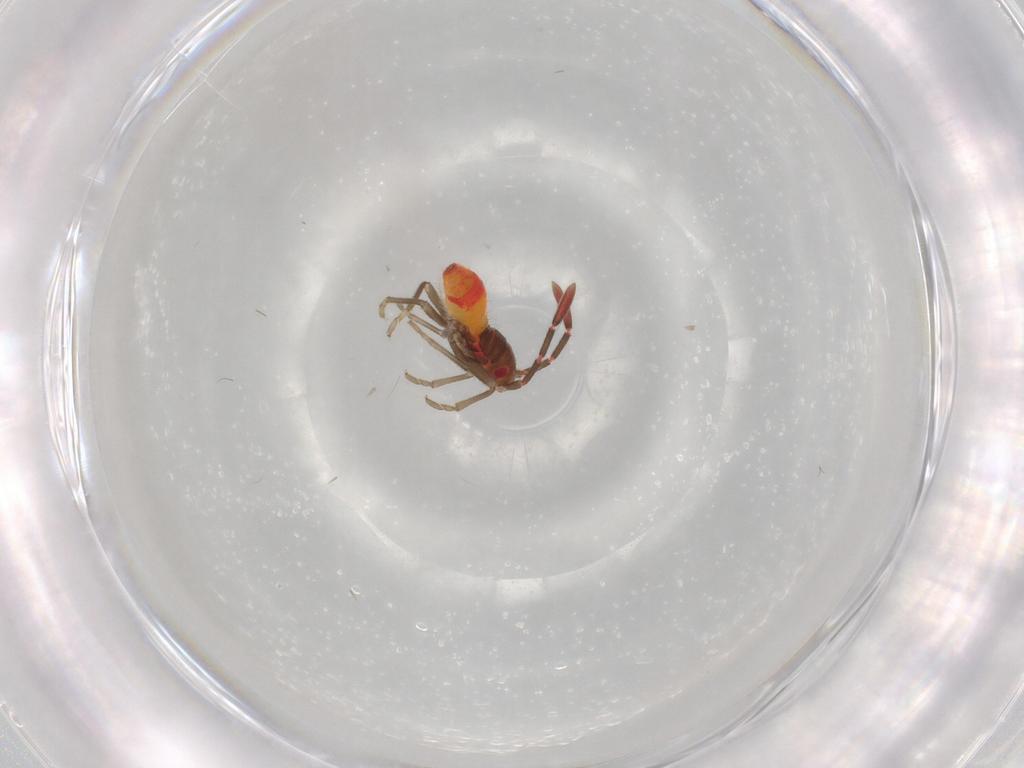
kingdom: Animalia
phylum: Arthropoda
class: Insecta
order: Hemiptera
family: Rhyparochromidae
